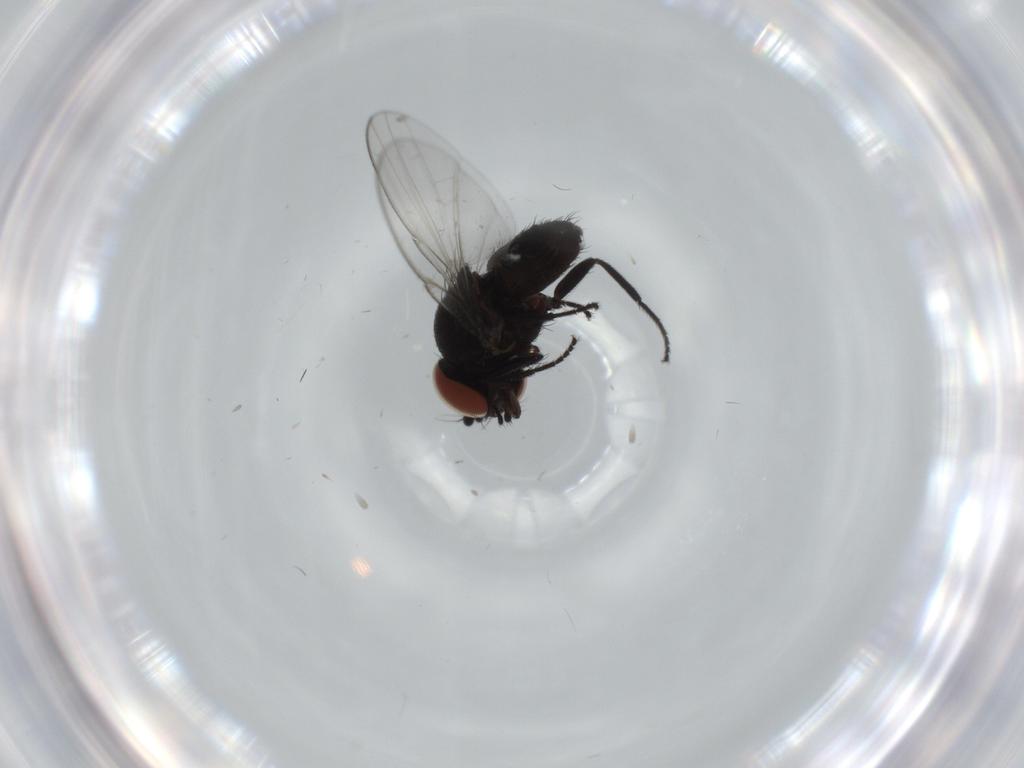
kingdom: Animalia
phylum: Arthropoda
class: Insecta
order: Diptera
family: Milichiidae
